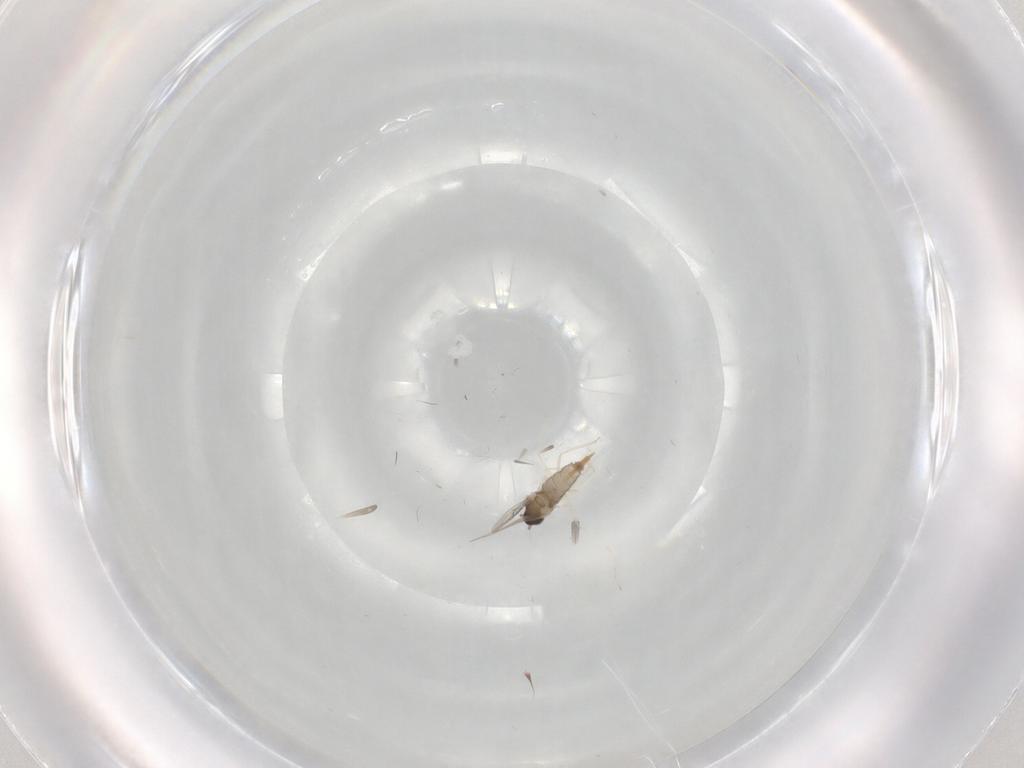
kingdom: Animalia
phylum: Arthropoda
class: Insecta
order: Diptera
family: Cecidomyiidae
